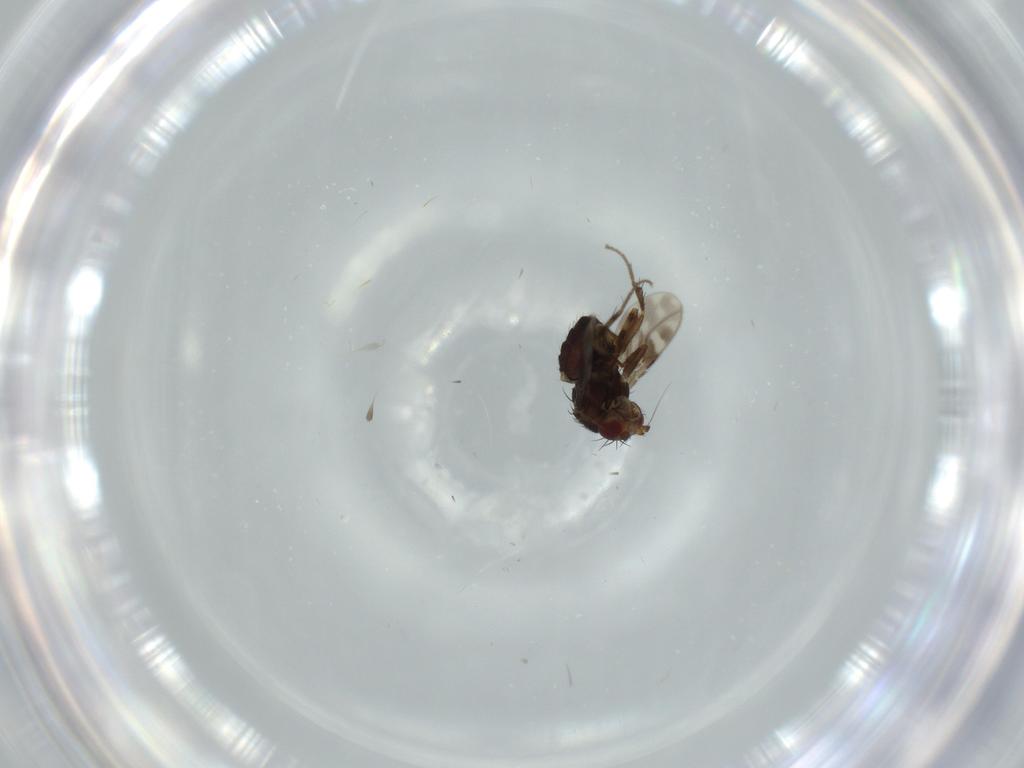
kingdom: Animalia
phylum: Arthropoda
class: Insecta
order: Diptera
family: Sphaeroceridae
